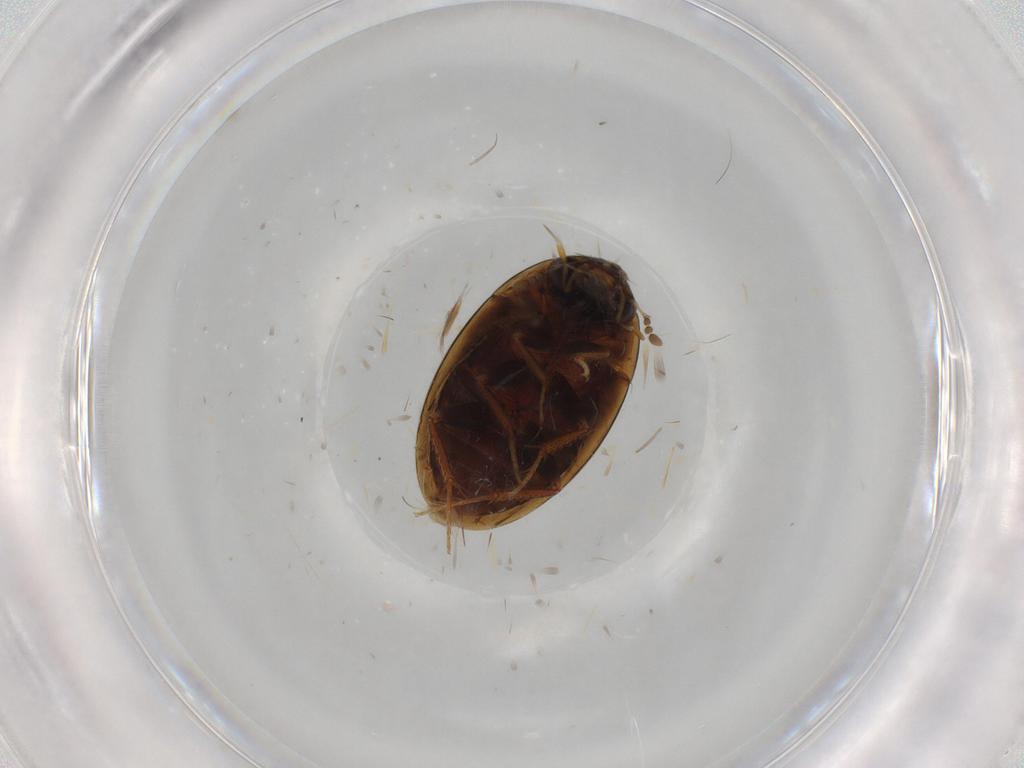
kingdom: Animalia
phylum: Arthropoda
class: Insecta
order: Coleoptera
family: Hydrophilidae
